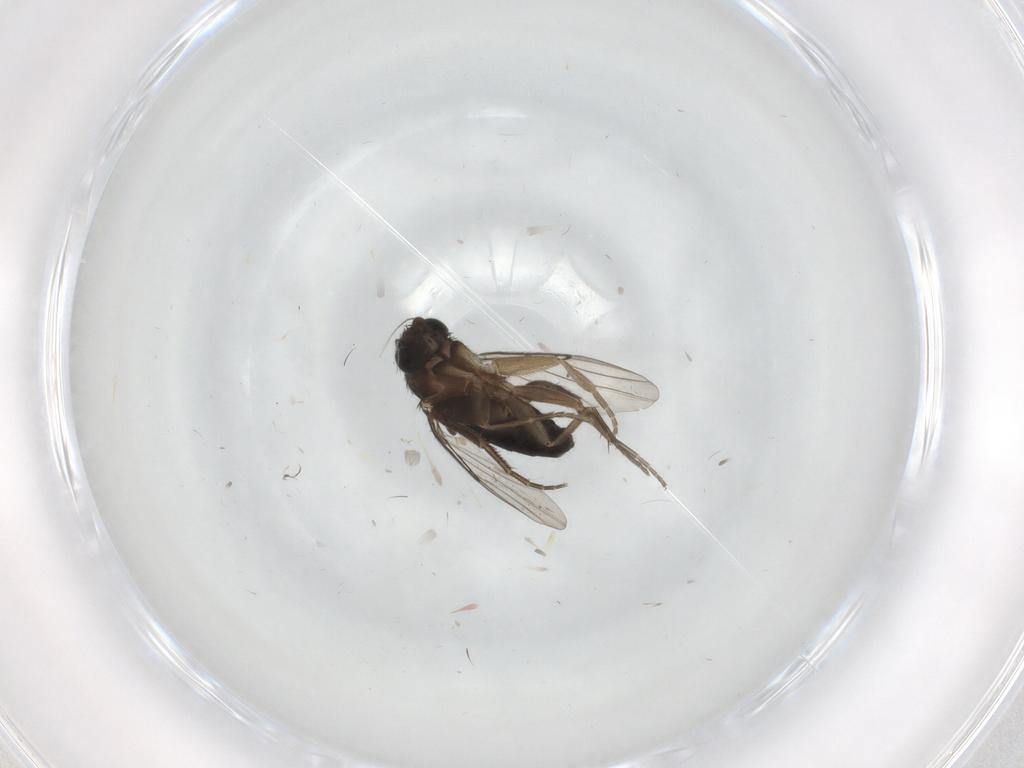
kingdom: Animalia
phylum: Arthropoda
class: Insecta
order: Diptera
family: Phoridae
